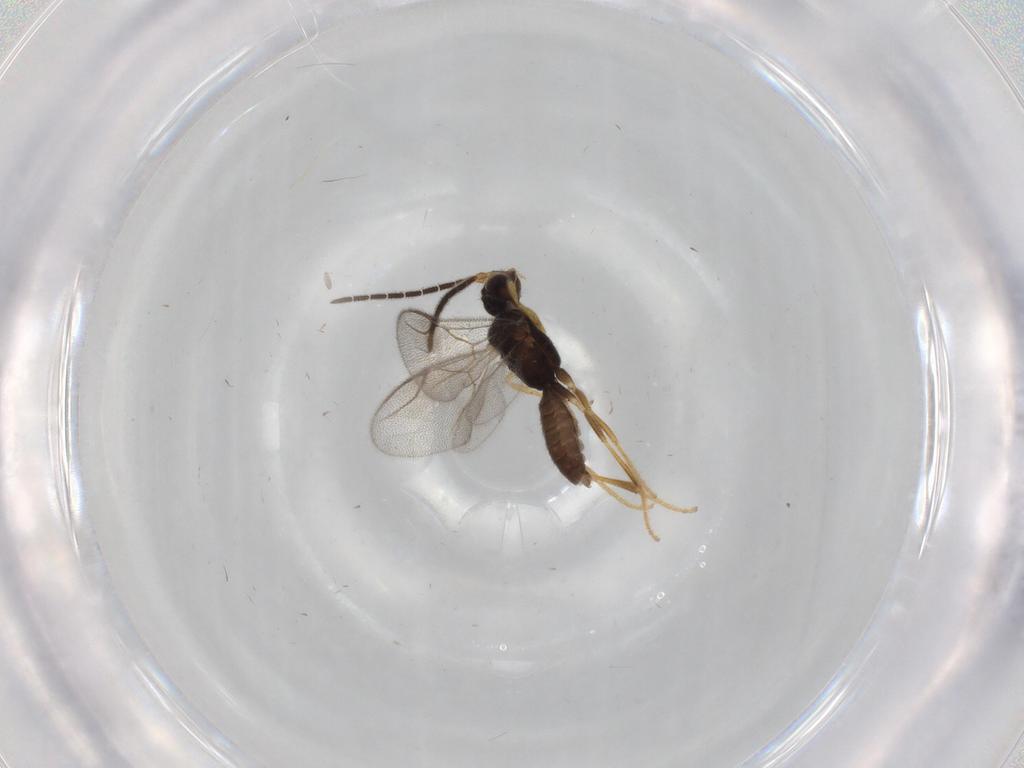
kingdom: Animalia
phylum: Arthropoda
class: Insecta
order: Hymenoptera
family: Dryinidae
